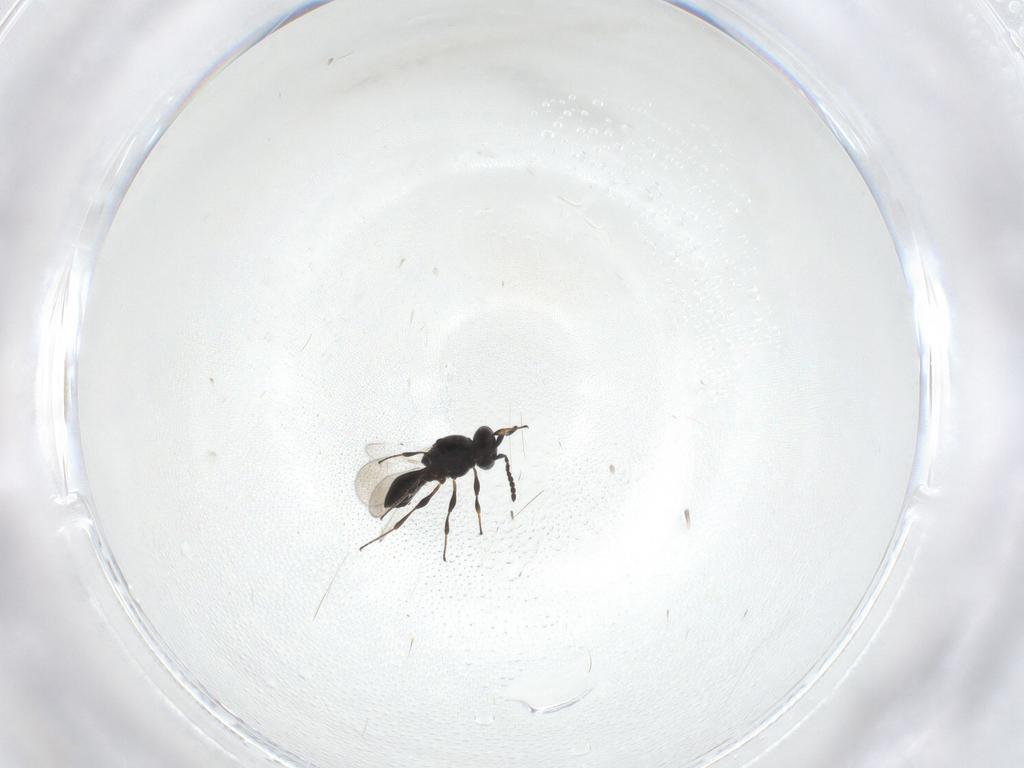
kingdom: Animalia
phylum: Arthropoda
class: Insecta
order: Hymenoptera
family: Platygastridae
